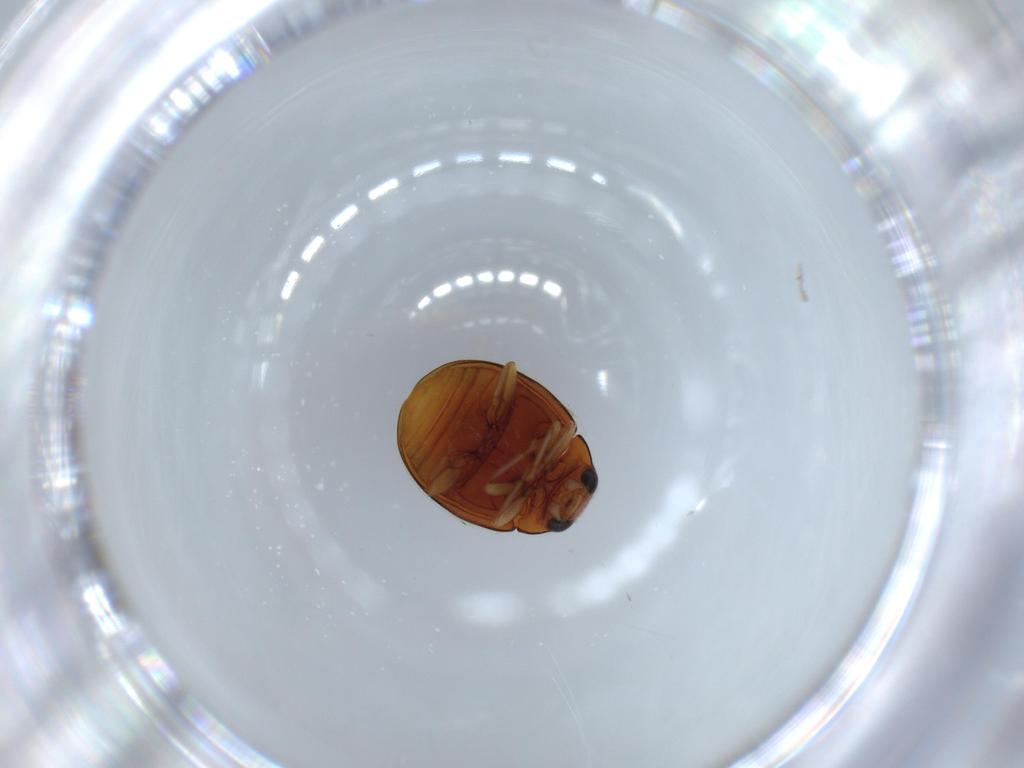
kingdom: Animalia
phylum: Arthropoda
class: Insecta
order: Coleoptera
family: Coccinellidae
